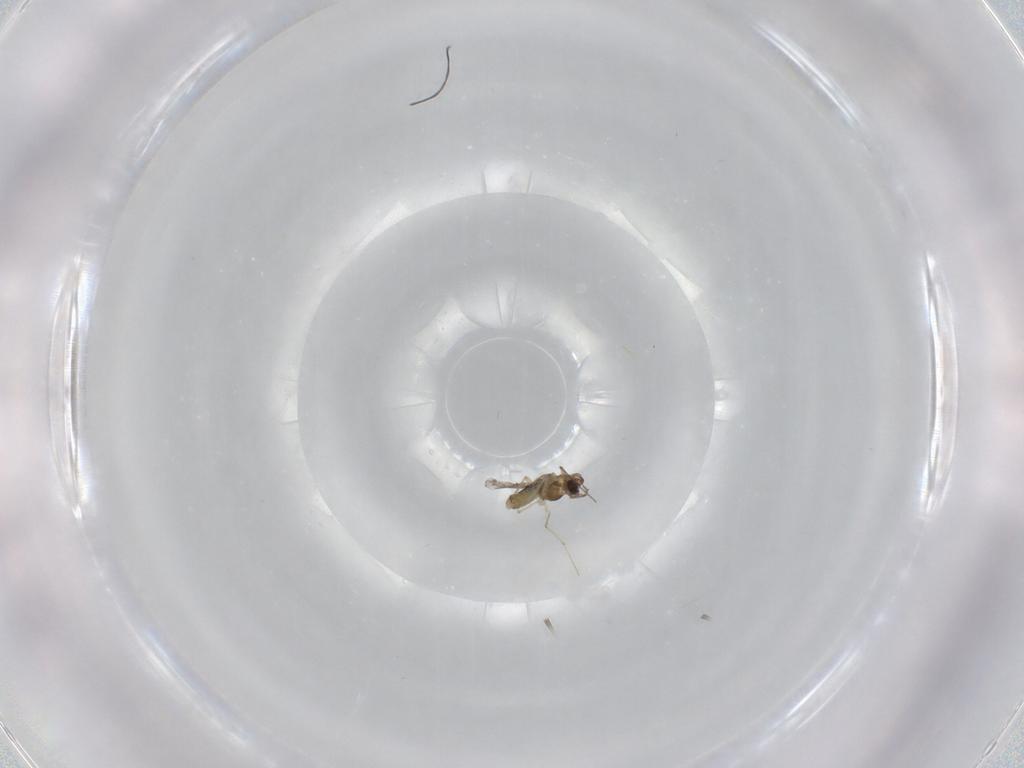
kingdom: Animalia
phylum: Arthropoda
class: Insecta
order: Diptera
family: Chironomidae
